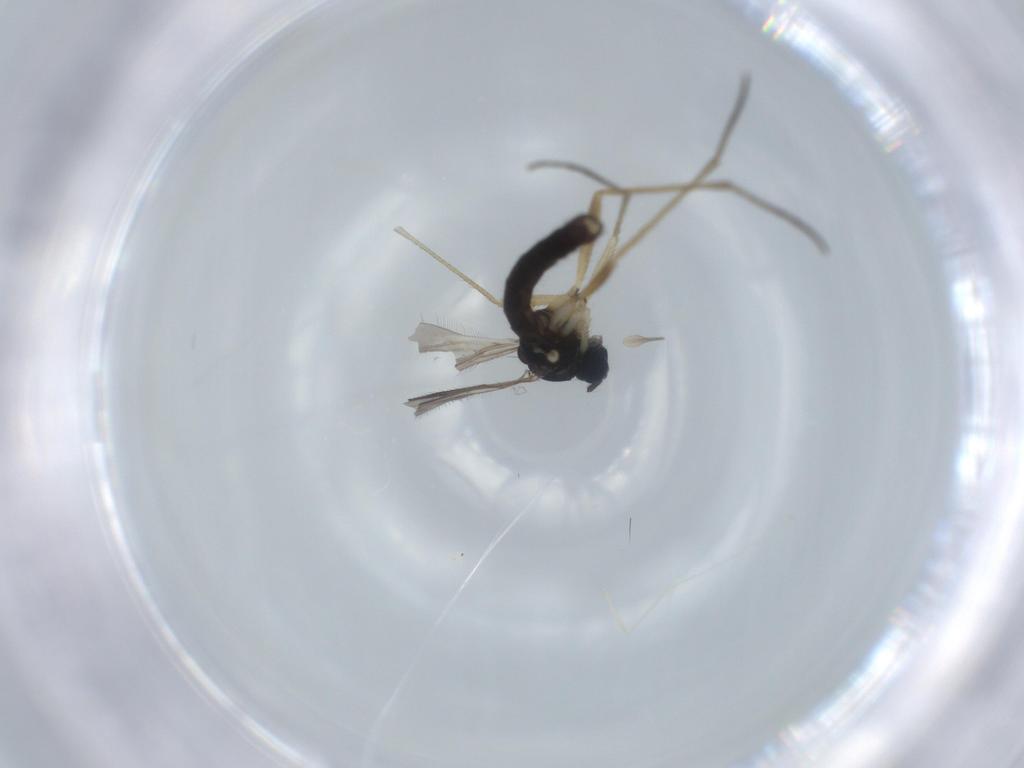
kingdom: Animalia
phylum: Arthropoda
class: Insecta
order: Diptera
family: Sciaridae
